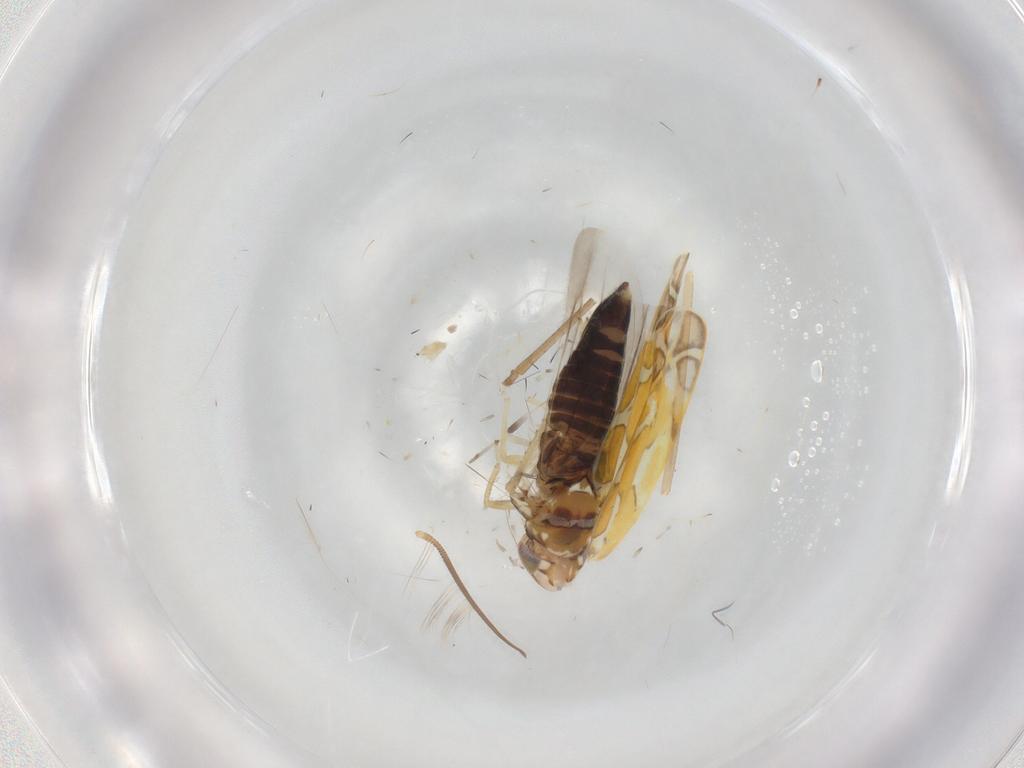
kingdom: Animalia
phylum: Arthropoda
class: Insecta
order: Hemiptera
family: Cicadellidae
